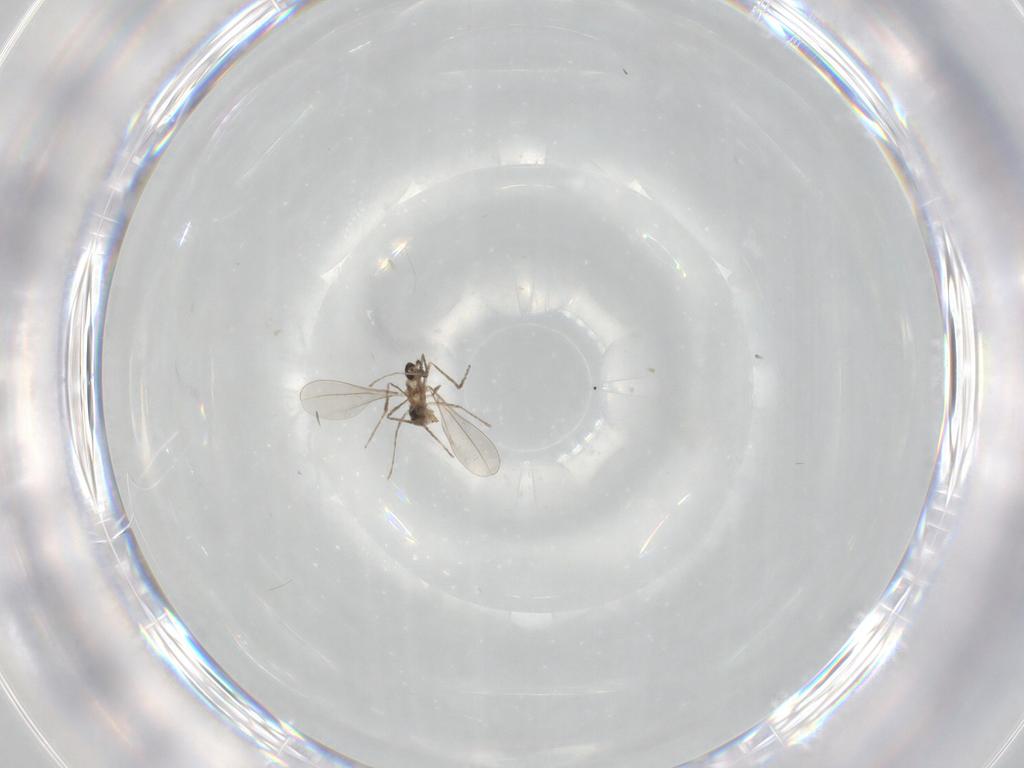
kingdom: Animalia
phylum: Arthropoda
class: Insecta
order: Diptera
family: Cecidomyiidae
